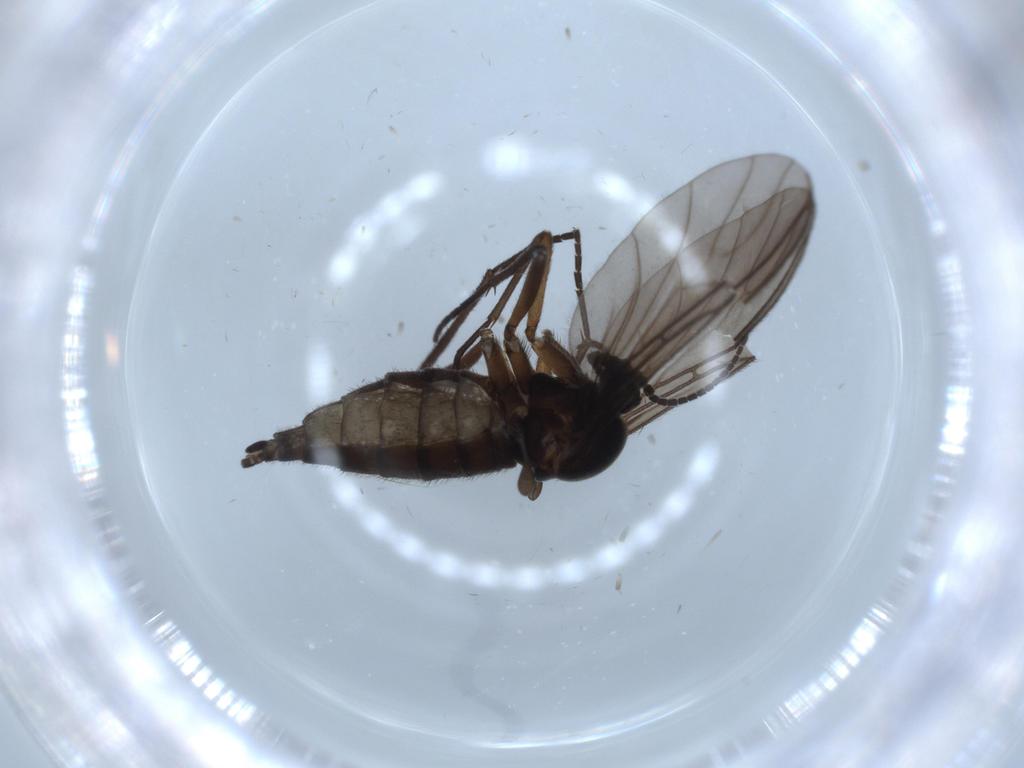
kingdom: Animalia
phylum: Arthropoda
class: Insecta
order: Diptera
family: Sciaridae
